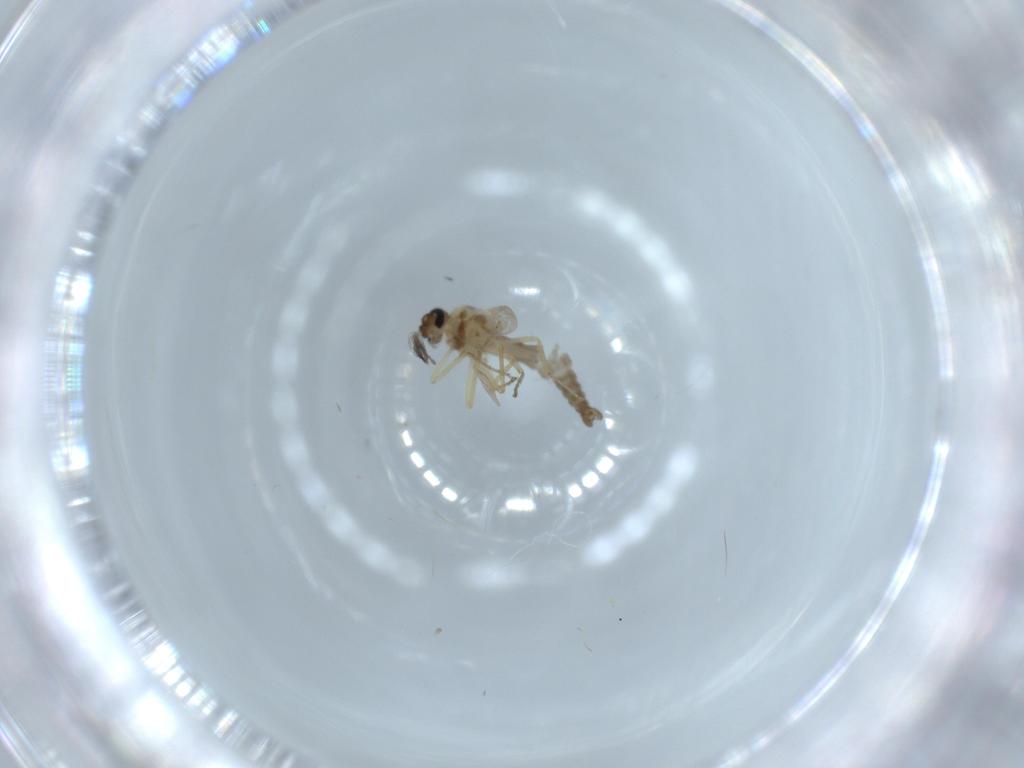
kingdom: Animalia
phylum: Arthropoda
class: Insecta
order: Diptera
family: Ceratopogonidae
